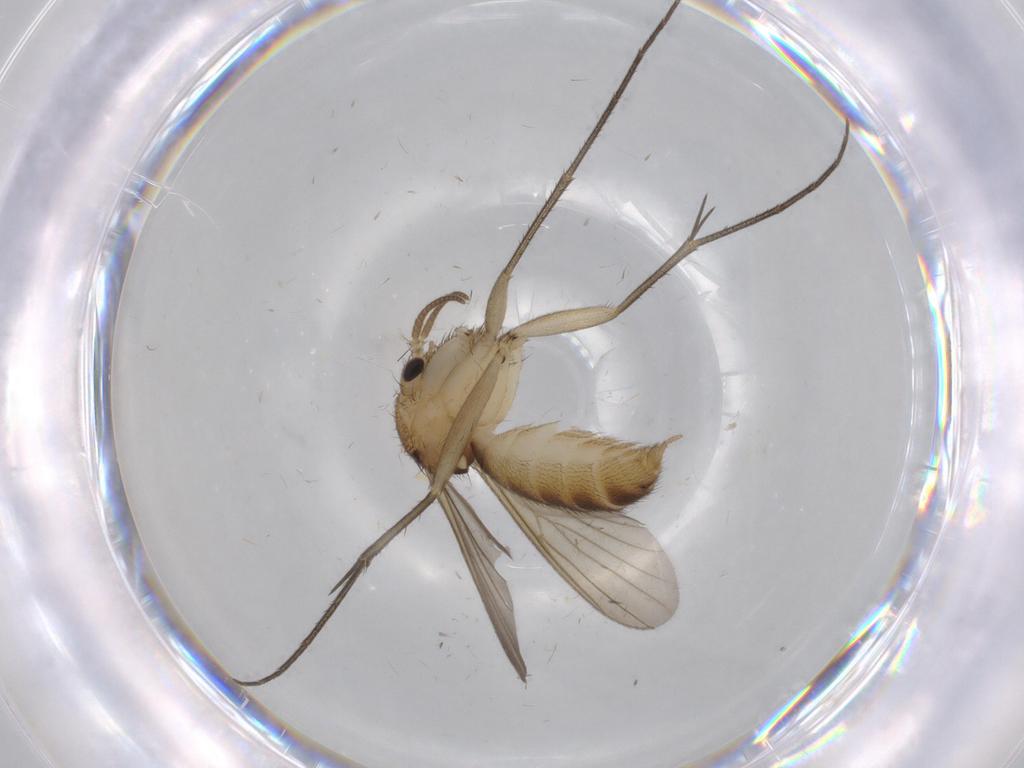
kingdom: Animalia
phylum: Arthropoda
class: Insecta
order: Diptera
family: Mycetophilidae
